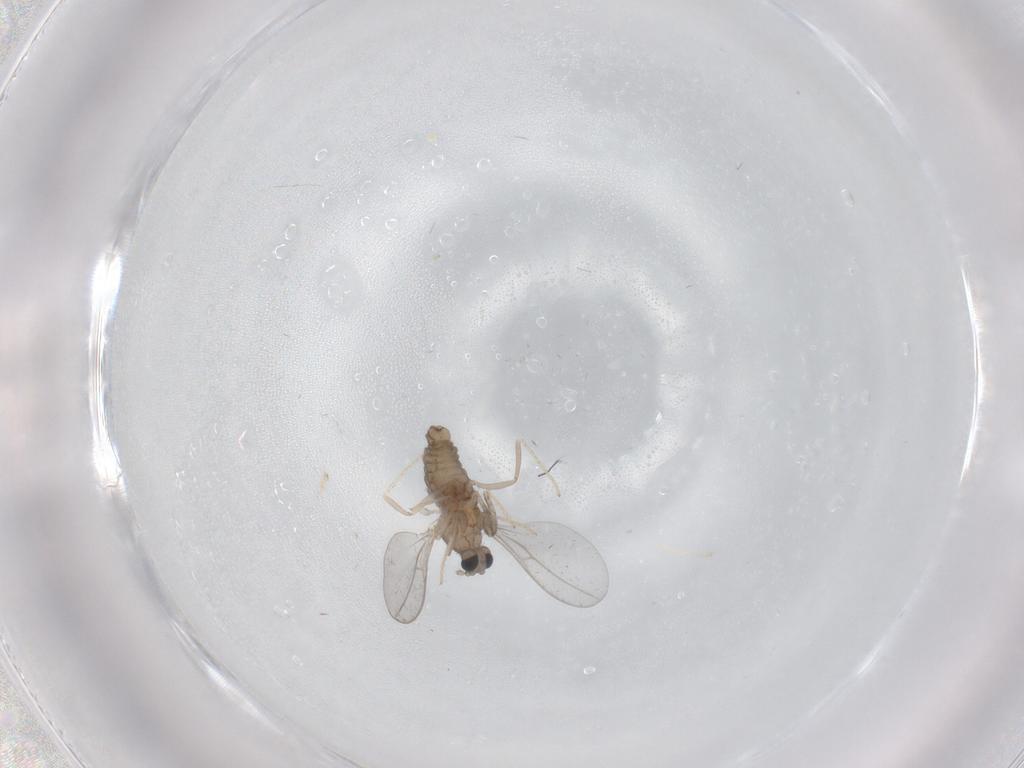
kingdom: Animalia
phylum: Arthropoda
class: Insecta
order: Diptera
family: Cecidomyiidae
